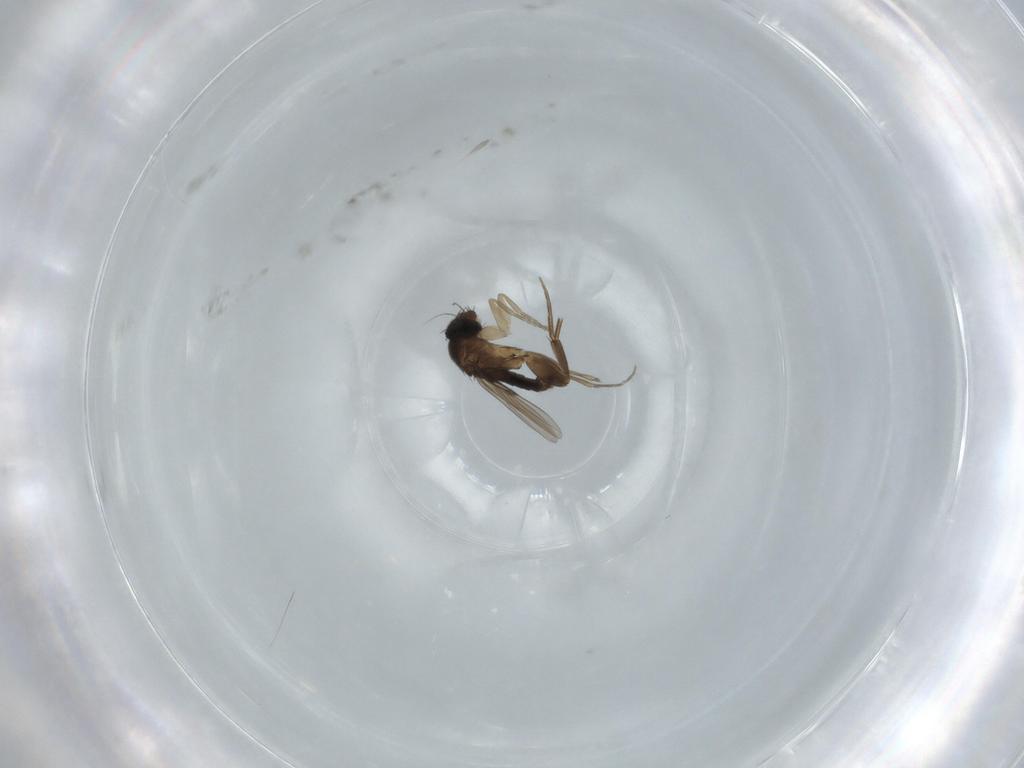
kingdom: Animalia
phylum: Arthropoda
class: Insecta
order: Diptera
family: Phoridae
